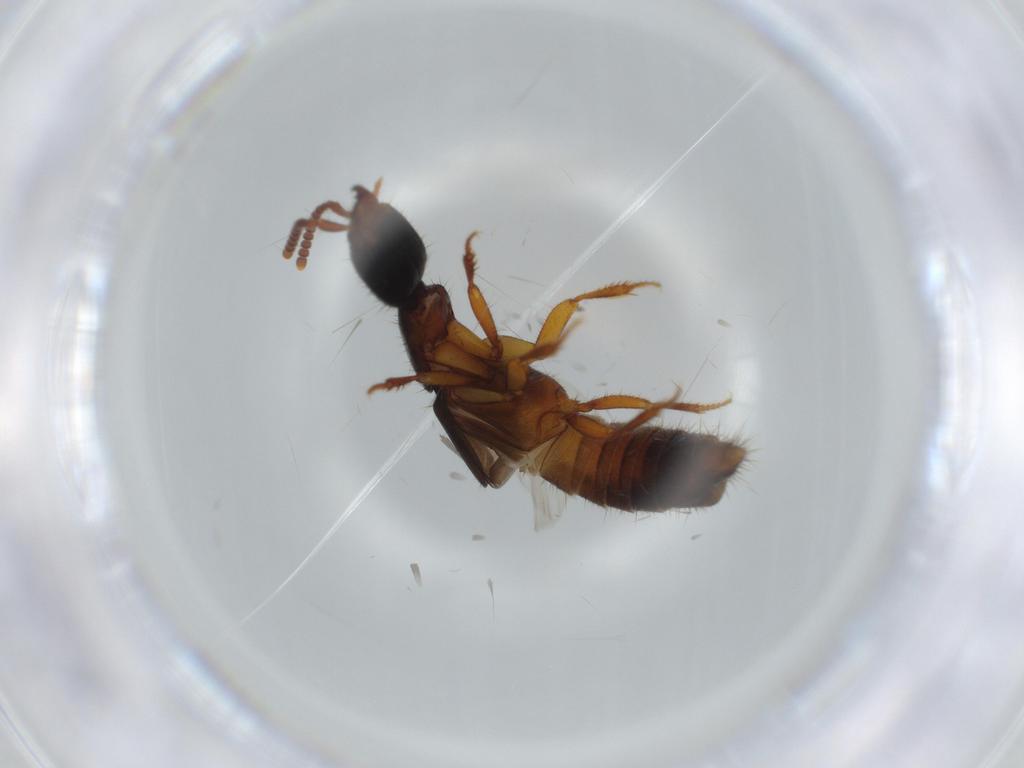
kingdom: Animalia
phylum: Arthropoda
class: Insecta
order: Coleoptera
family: Staphylinidae
